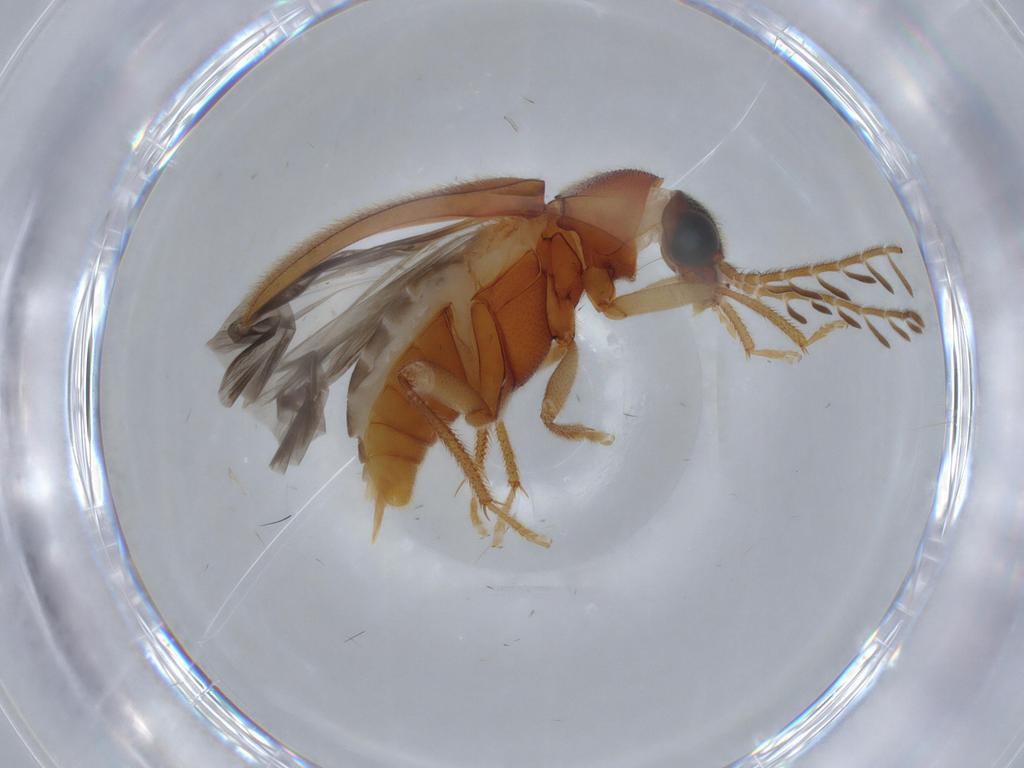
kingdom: Animalia
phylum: Arthropoda
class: Insecta
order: Coleoptera
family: Ptilodactylidae
